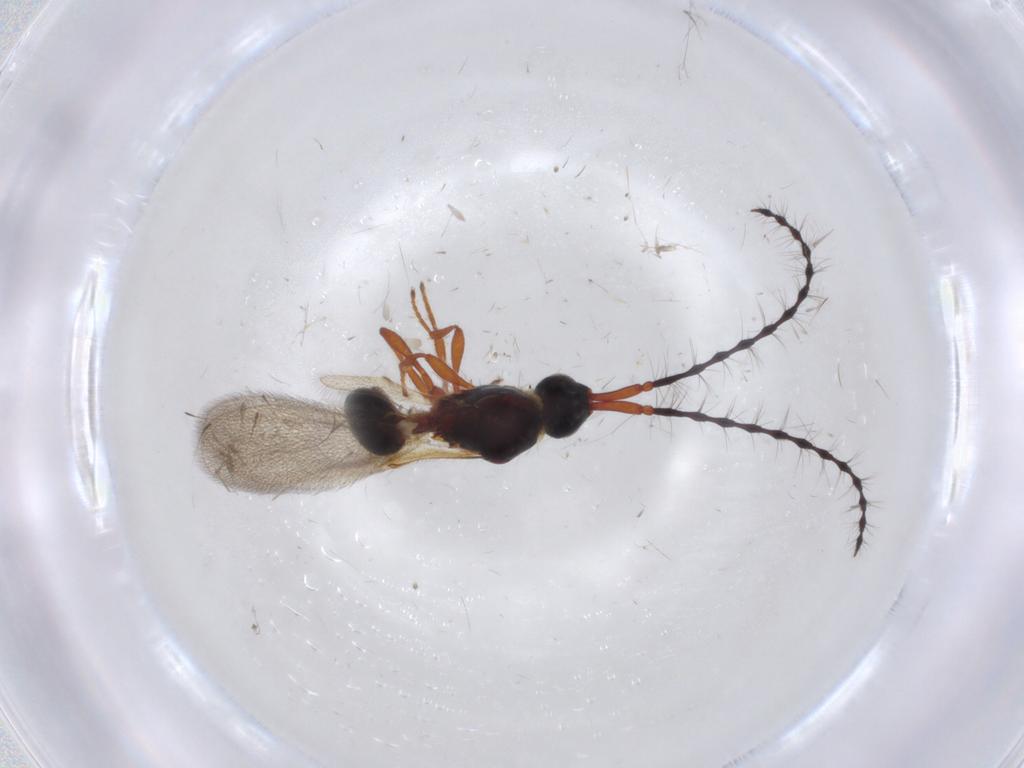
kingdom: Animalia
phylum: Arthropoda
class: Insecta
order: Hymenoptera
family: Diapriidae
